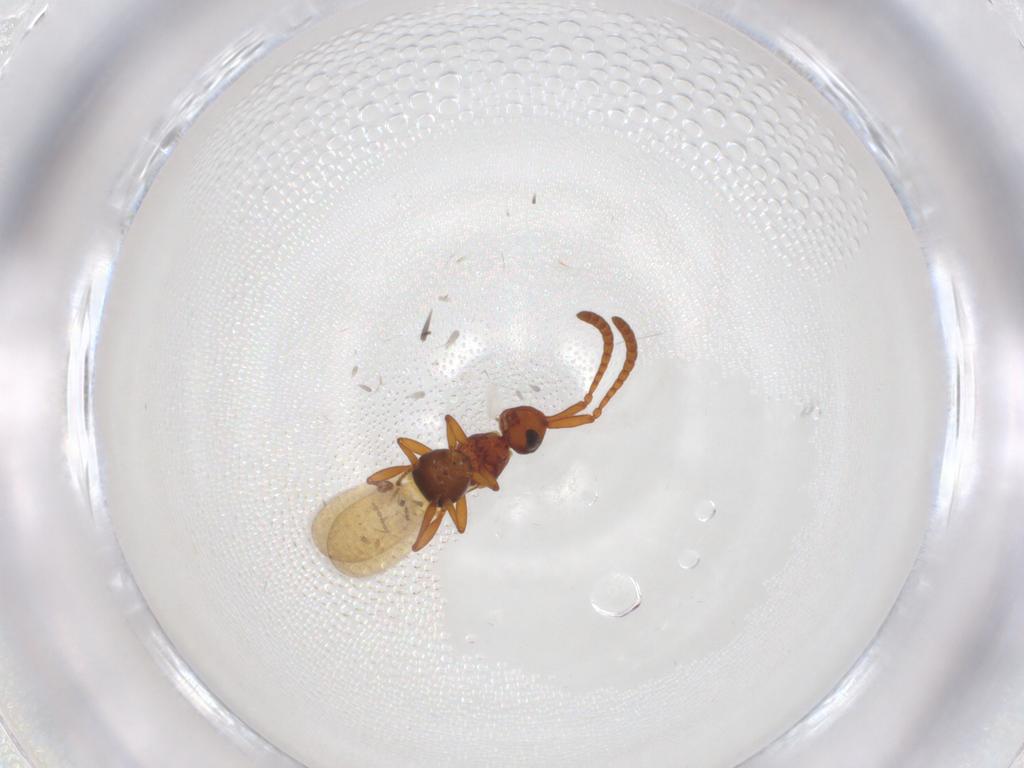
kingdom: Animalia
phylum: Arthropoda
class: Insecta
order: Hymenoptera
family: Diapriidae
